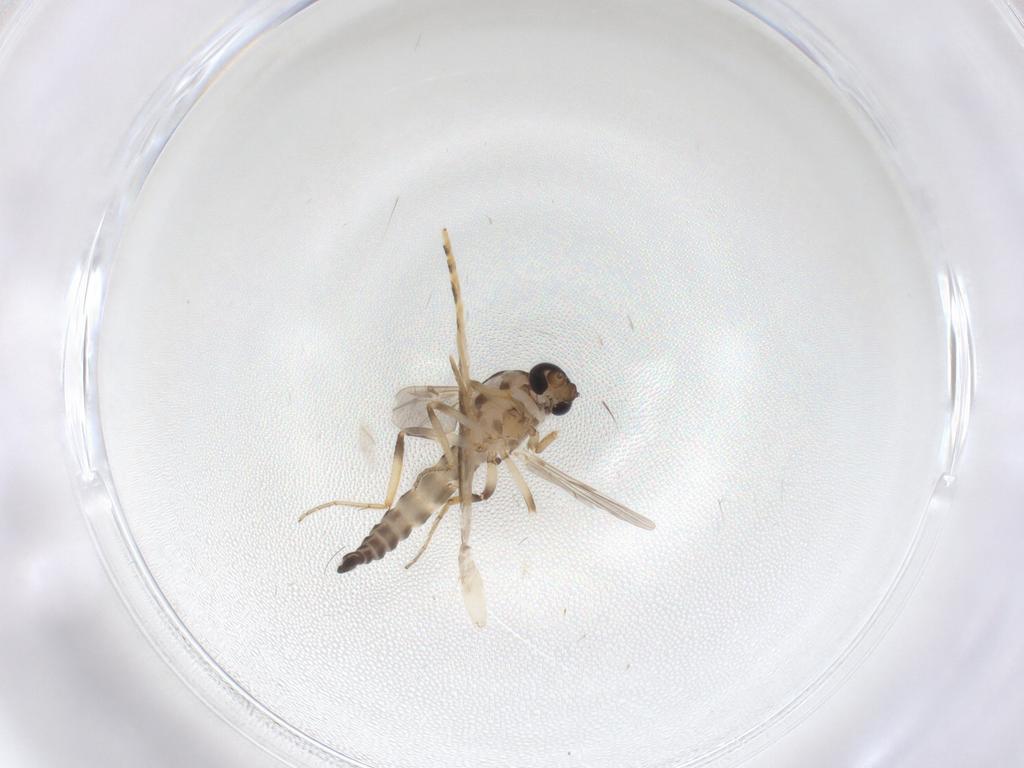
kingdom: Animalia
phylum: Arthropoda
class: Insecta
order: Diptera
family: Ceratopogonidae
